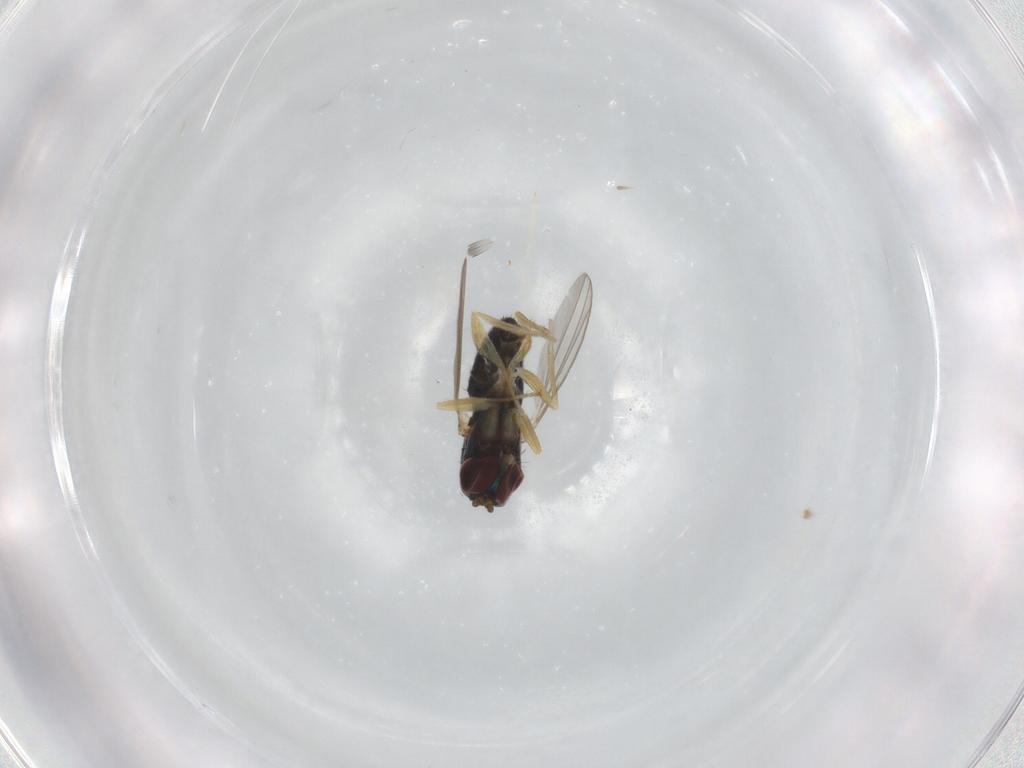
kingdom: Animalia
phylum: Arthropoda
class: Insecta
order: Diptera
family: Dolichopodidae
